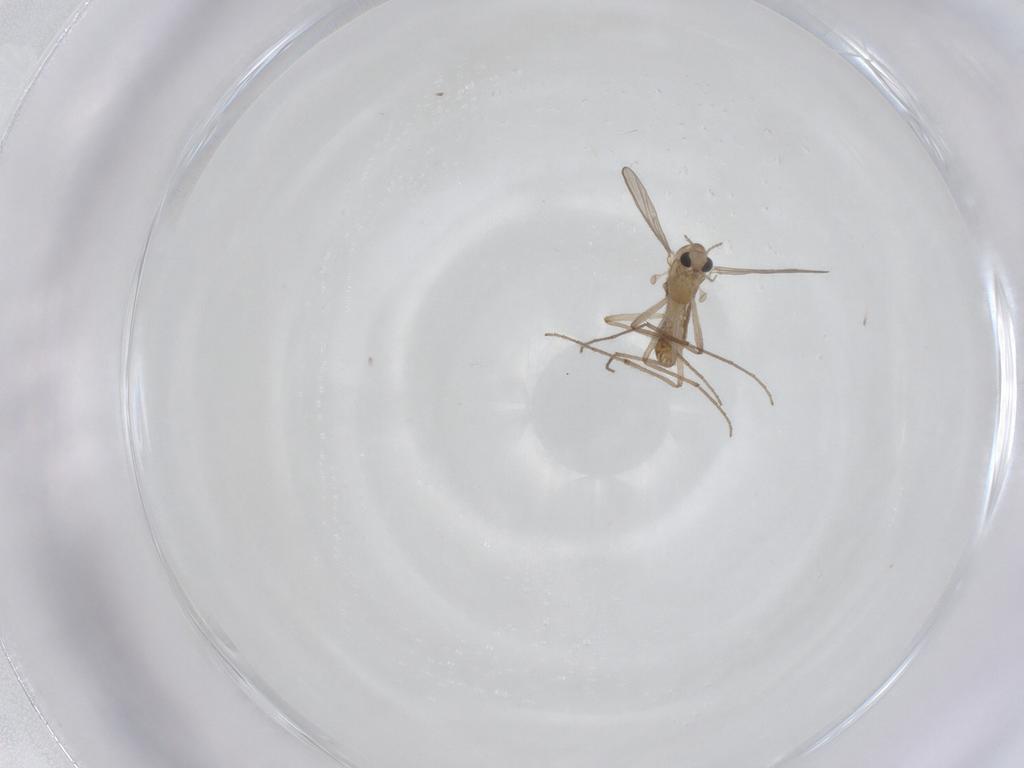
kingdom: Animalia
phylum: Arthropoda
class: Insecta
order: Diptera
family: Chironomidae
